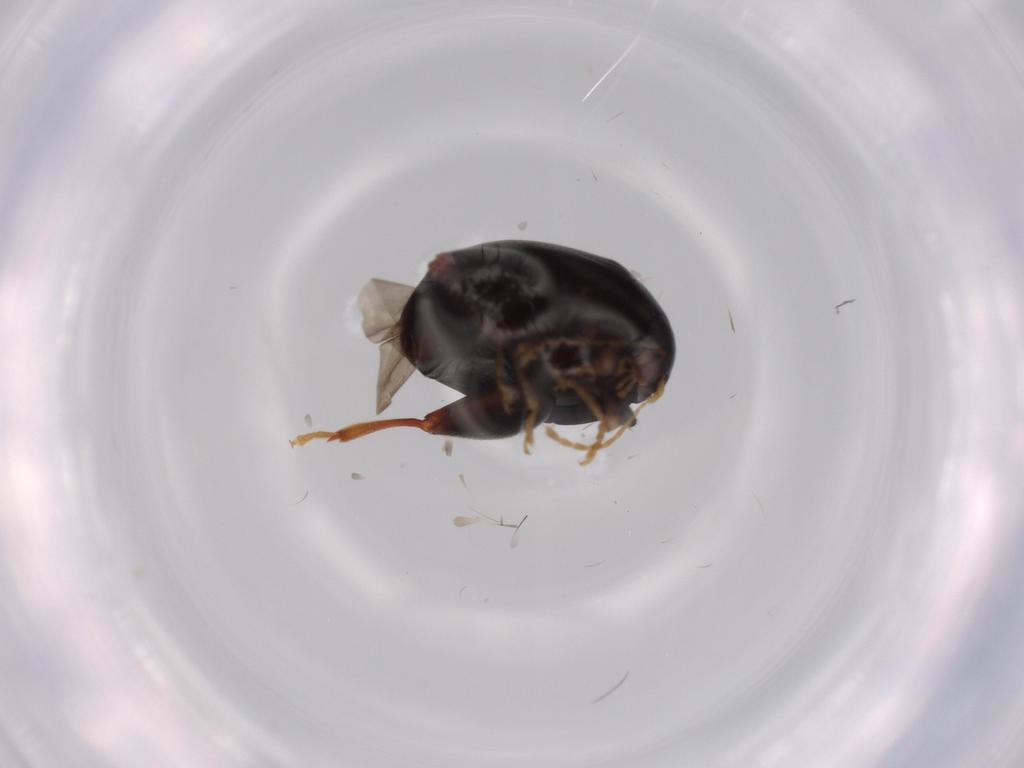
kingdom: Animalia
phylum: Arthropoda
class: Insecta
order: Coleoptera
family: Chrysomelidae
